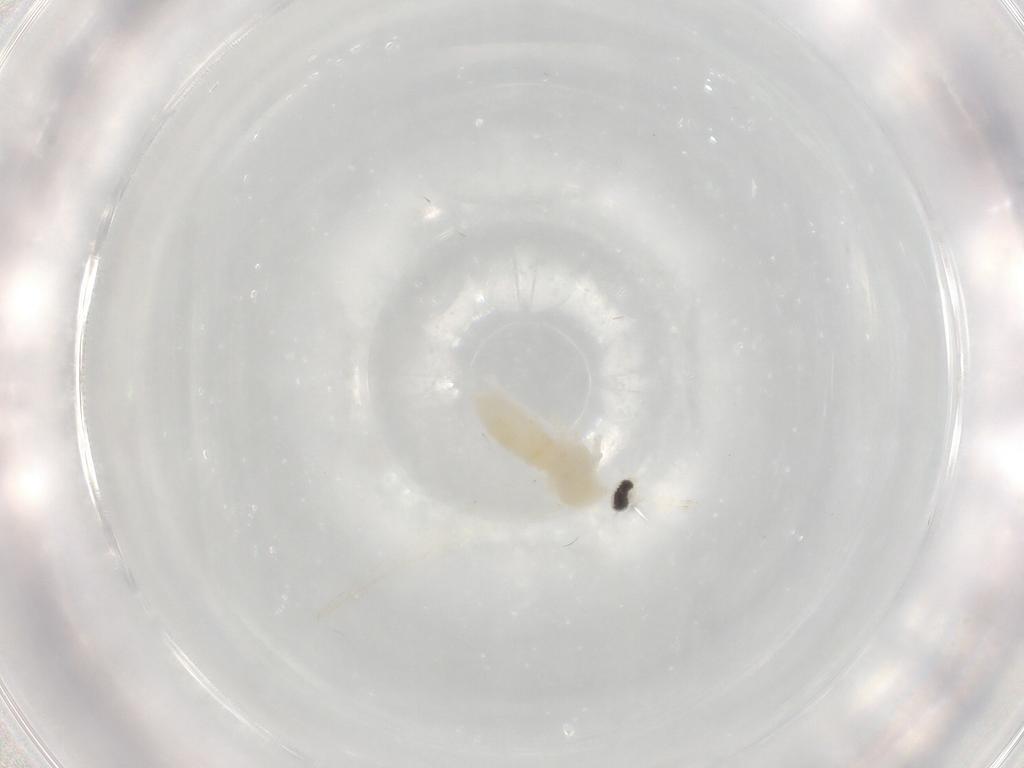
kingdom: Animalia
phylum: Arthropoda
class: Insecta
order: Diptera
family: Cecidomyiidae
